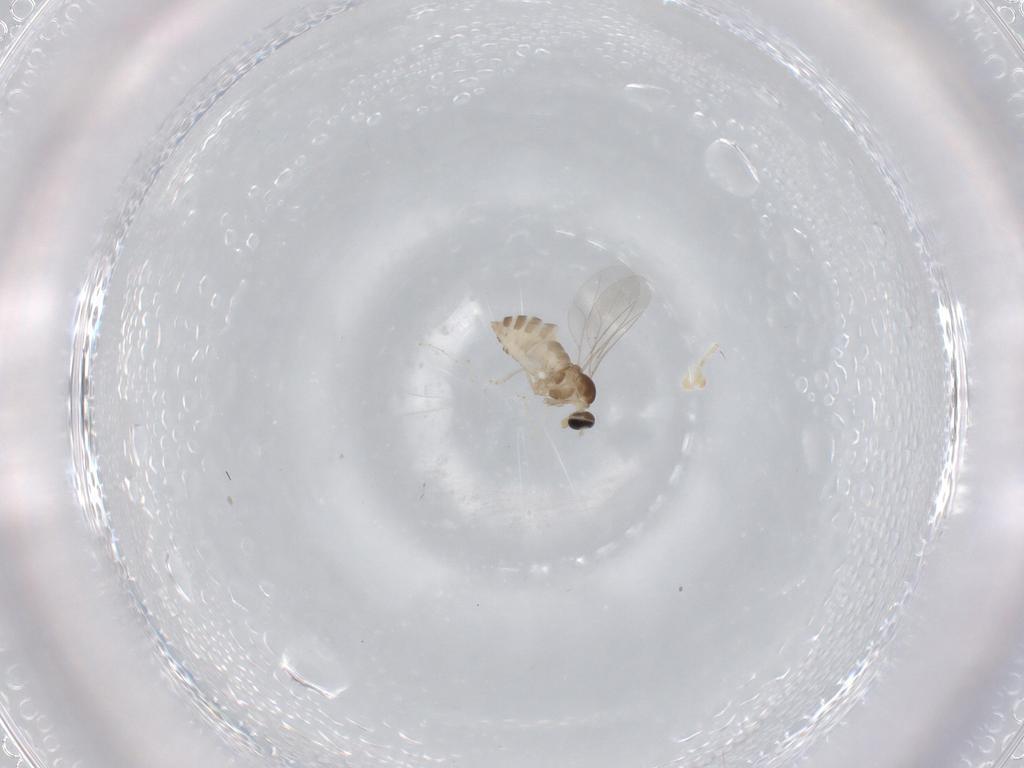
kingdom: Animalia
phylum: Arthropoda
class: Insecta
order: Diptera
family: Cecidomyiidae
